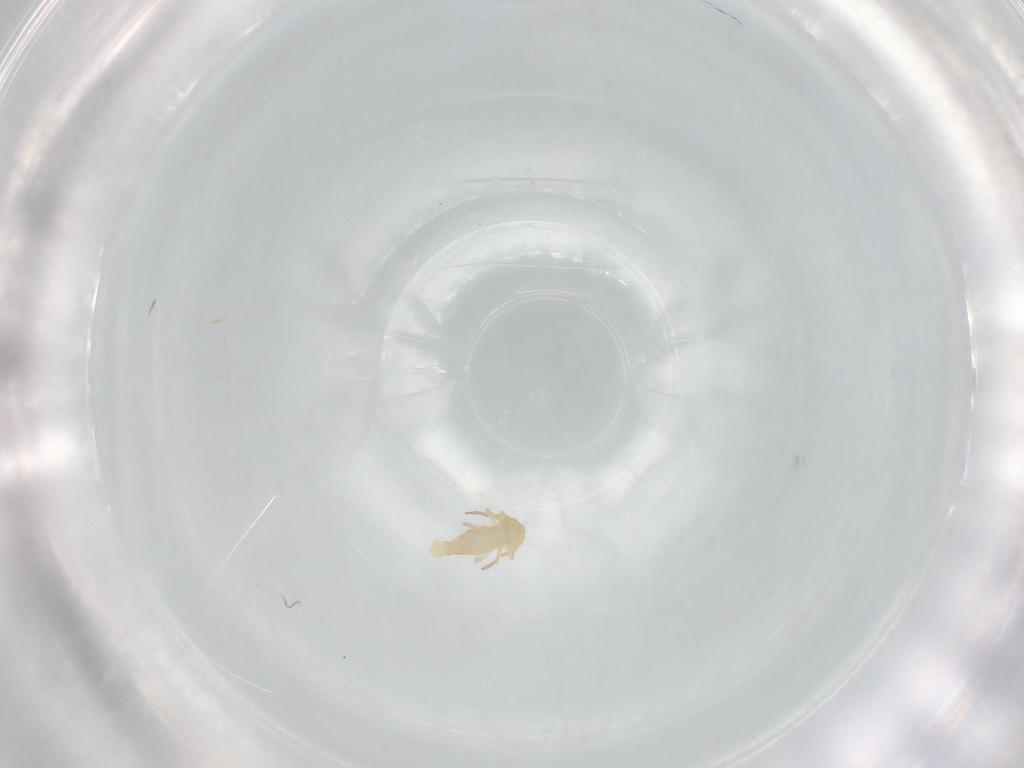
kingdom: Animalia
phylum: Arthropoda
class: Collembola
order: Symphypleona
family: Bourletiellidae
